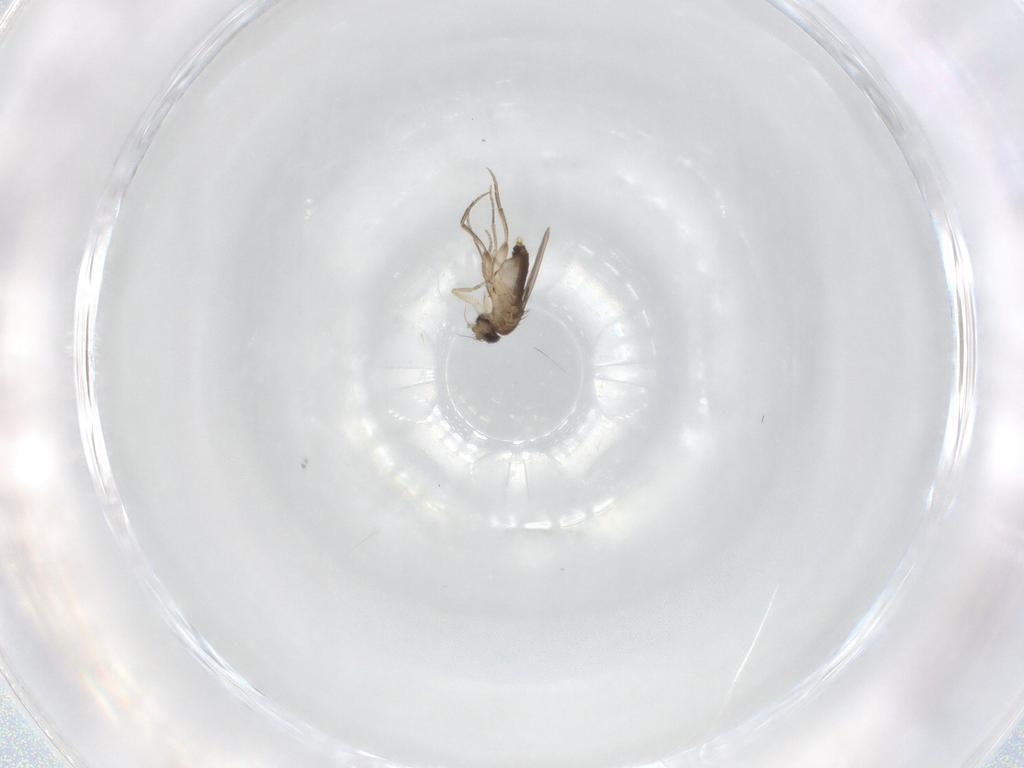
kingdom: Animalia
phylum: Arthropoda
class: Insecta
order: Diptera
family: Phoridae
